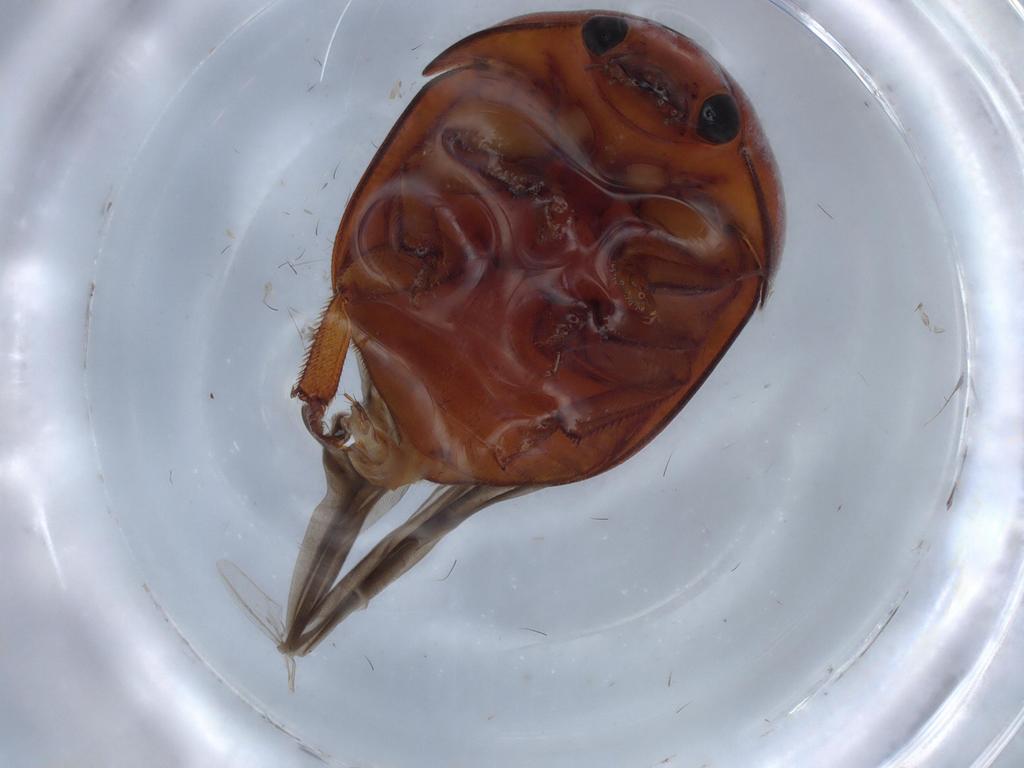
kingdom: Animalia
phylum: Arthropoda
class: Insecta
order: Coleoptera
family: Nitidulidae
